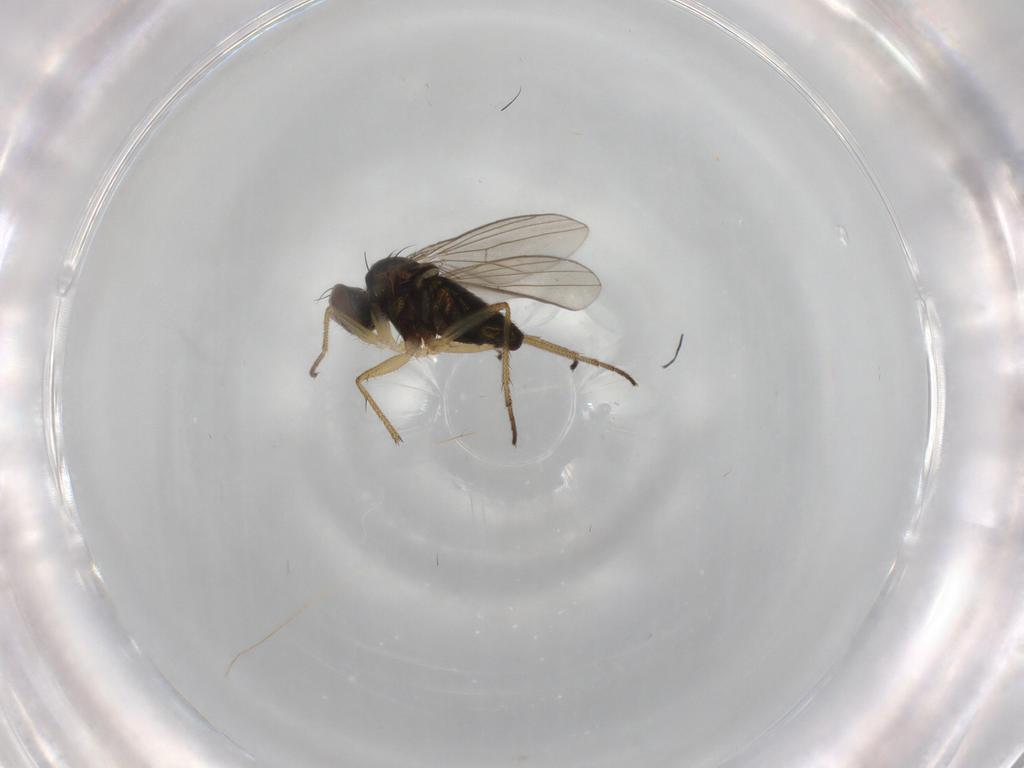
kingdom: Animalia
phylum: Arthropoda
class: Insecta
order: Diptera
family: Dolichopodidae
